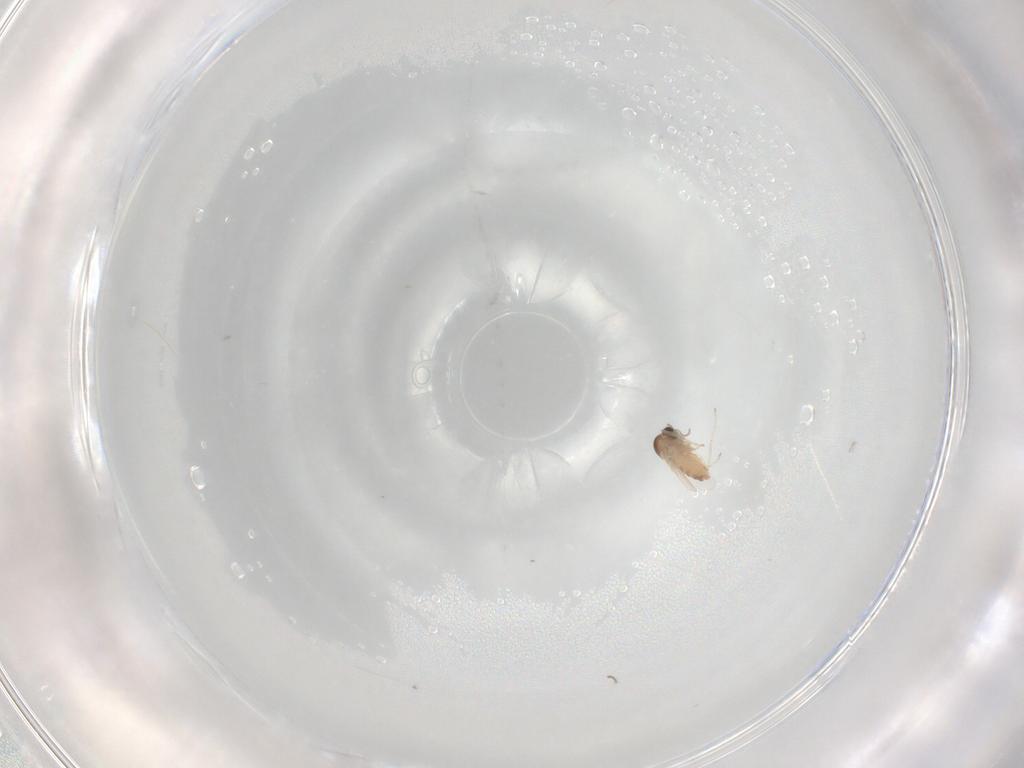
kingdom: Animalia
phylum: Arthropoda
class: Insecta
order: Diptera
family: Cecidomyiidae
